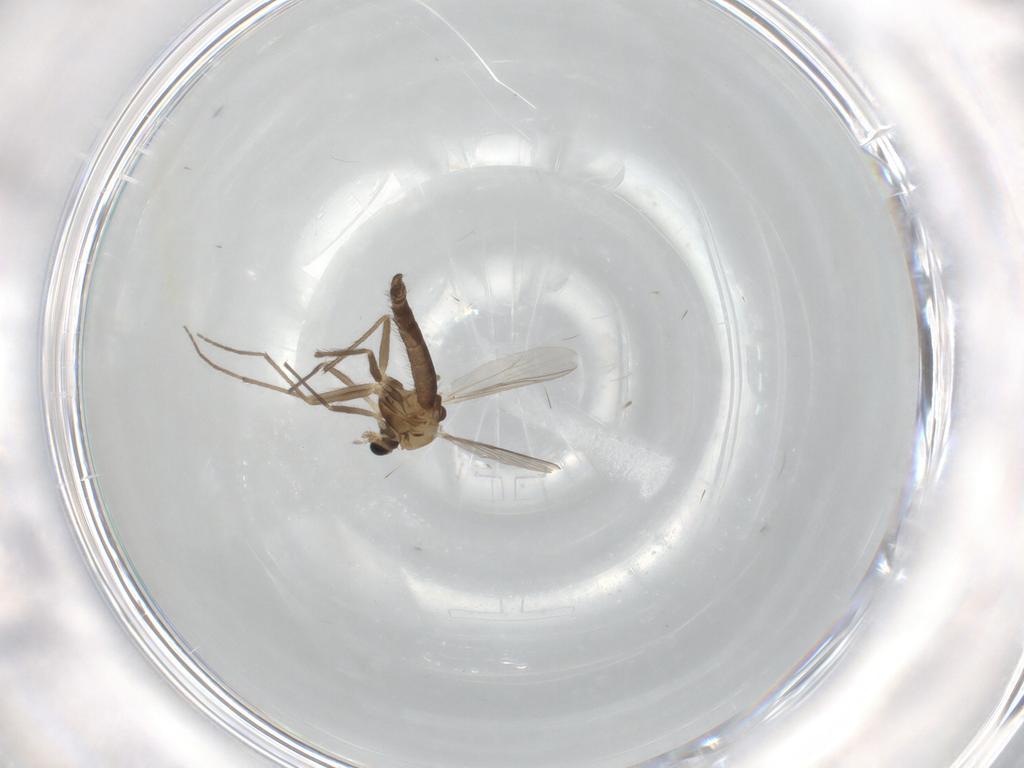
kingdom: Animalia
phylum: Arthropoda
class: Insecta
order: Diptera
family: Chironomidae
